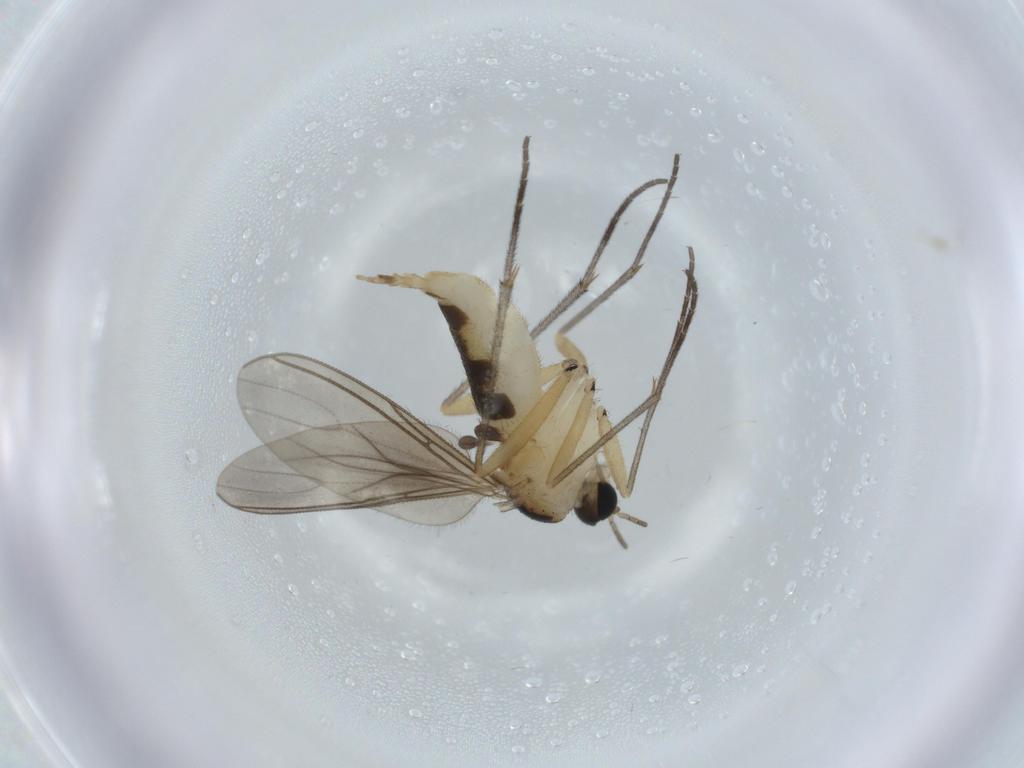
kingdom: Animalia
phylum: Arthropoda
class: Insecta
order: Diptera
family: Sciaridae
